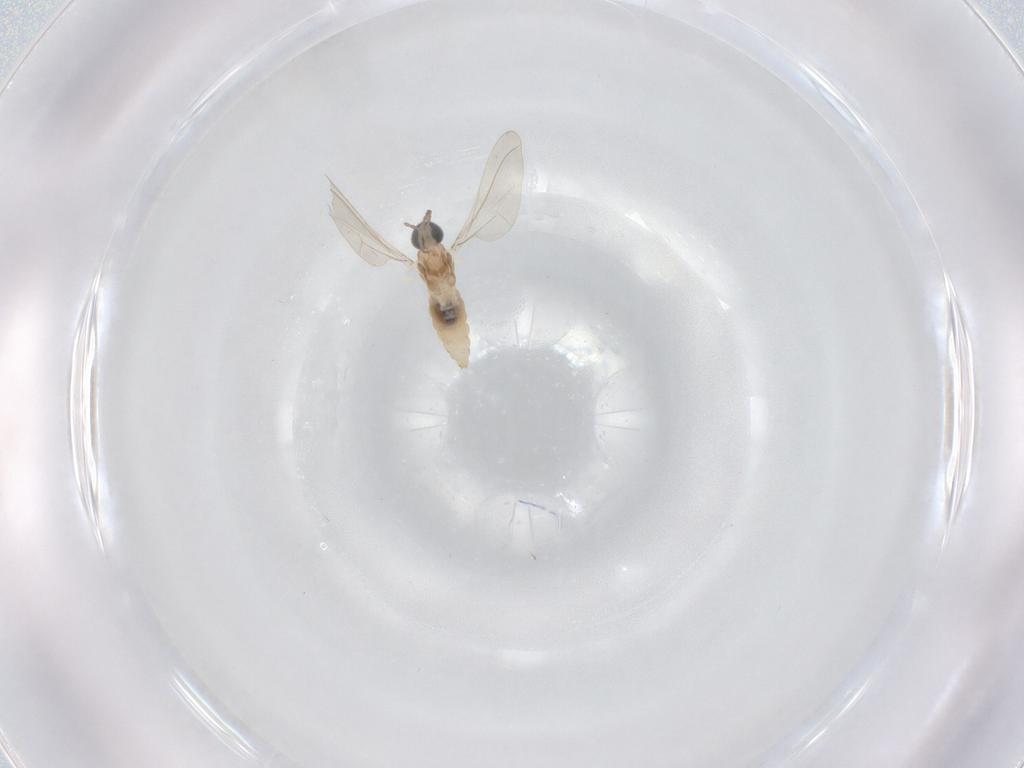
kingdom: Animalia
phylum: Arthropoda
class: Insecta
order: Diptera
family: Cecidomyiidae
